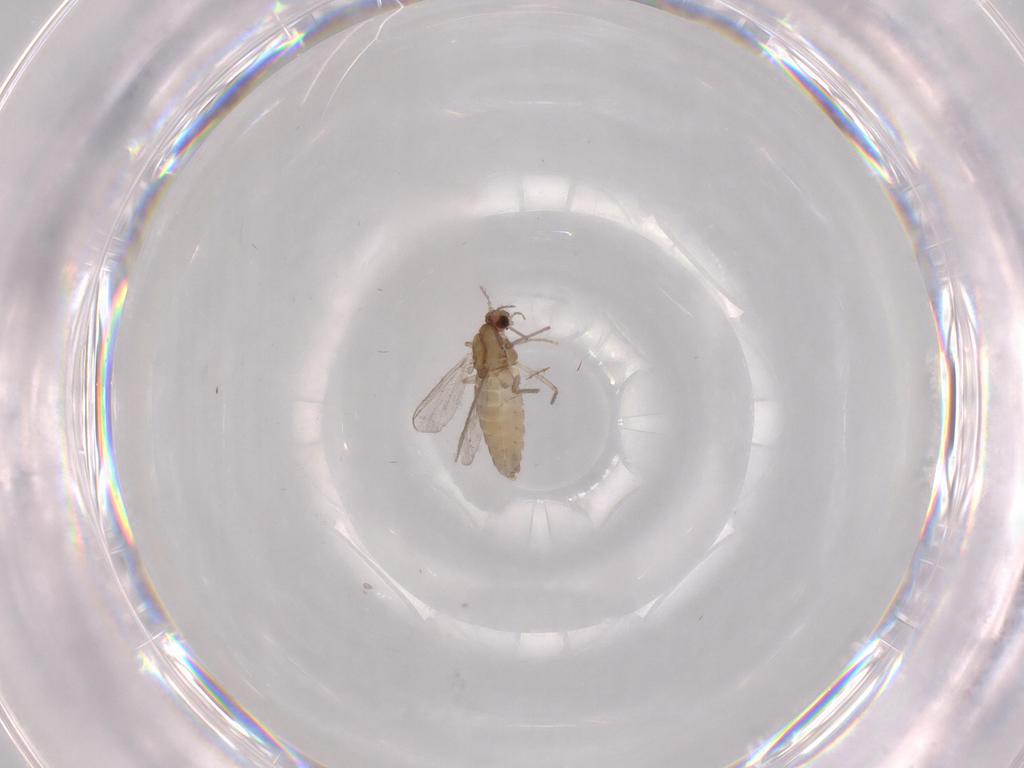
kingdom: Animalia
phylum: Arthropoda
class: Insecta
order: Diptera
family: Chironomidae
